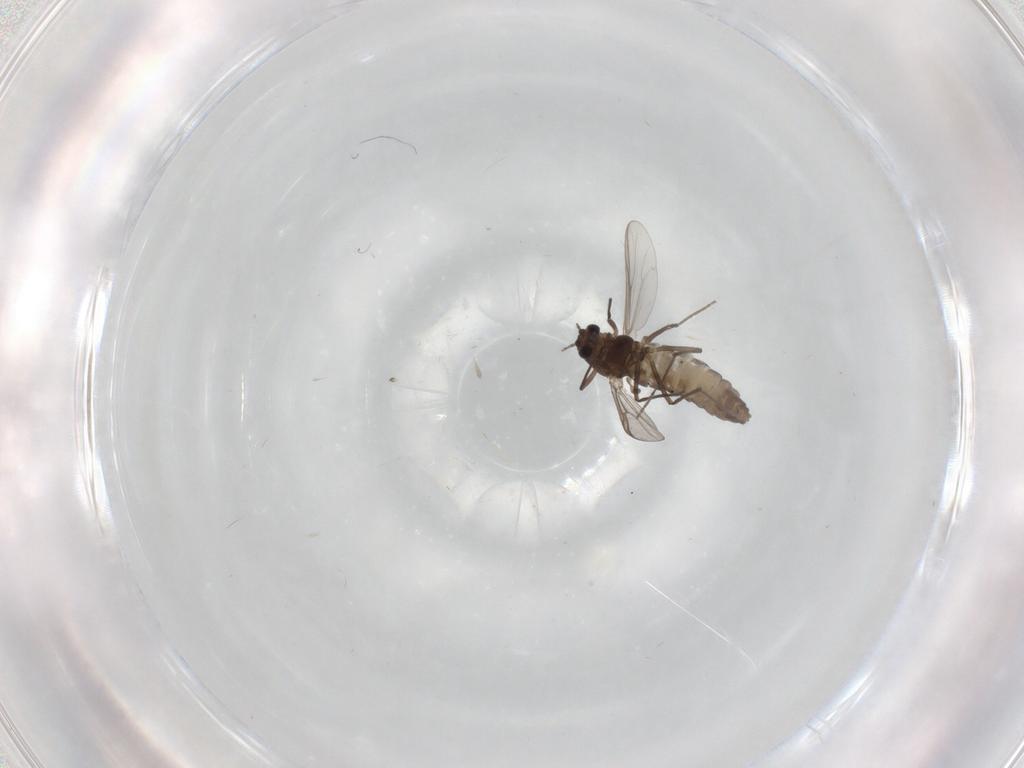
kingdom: Animalia
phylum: Arthropoda
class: Insecta
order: Diptera
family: Chironomidae
